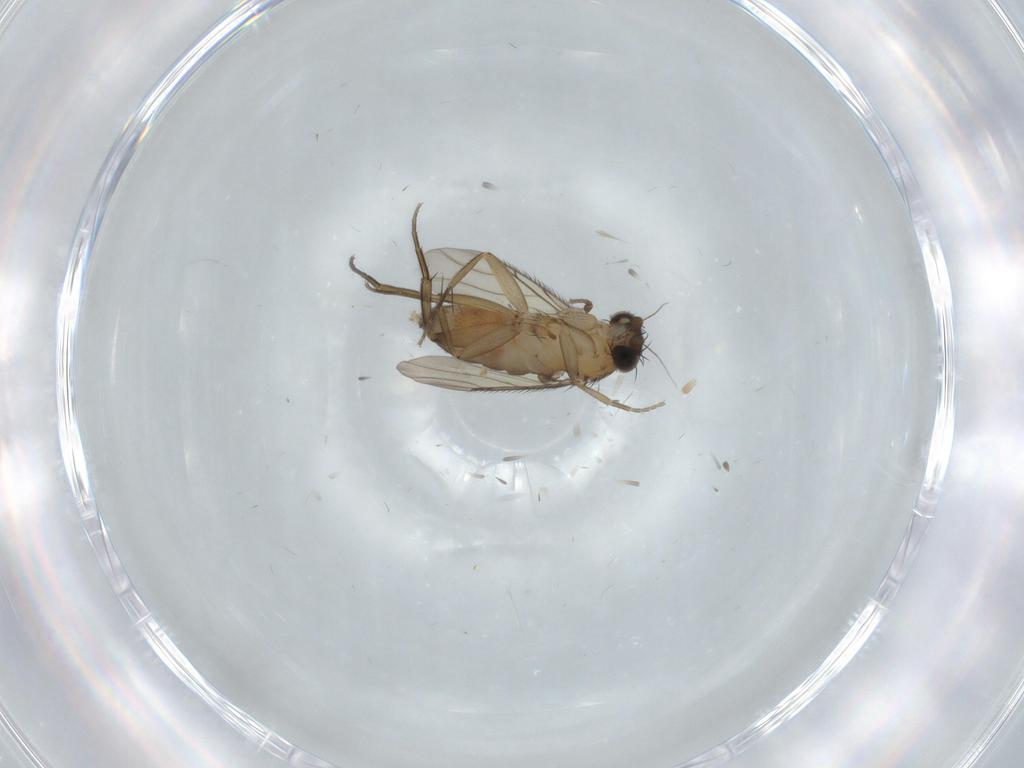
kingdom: Animalia
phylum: Arthropoda
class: Insecta
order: Diptera
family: Phoridae
